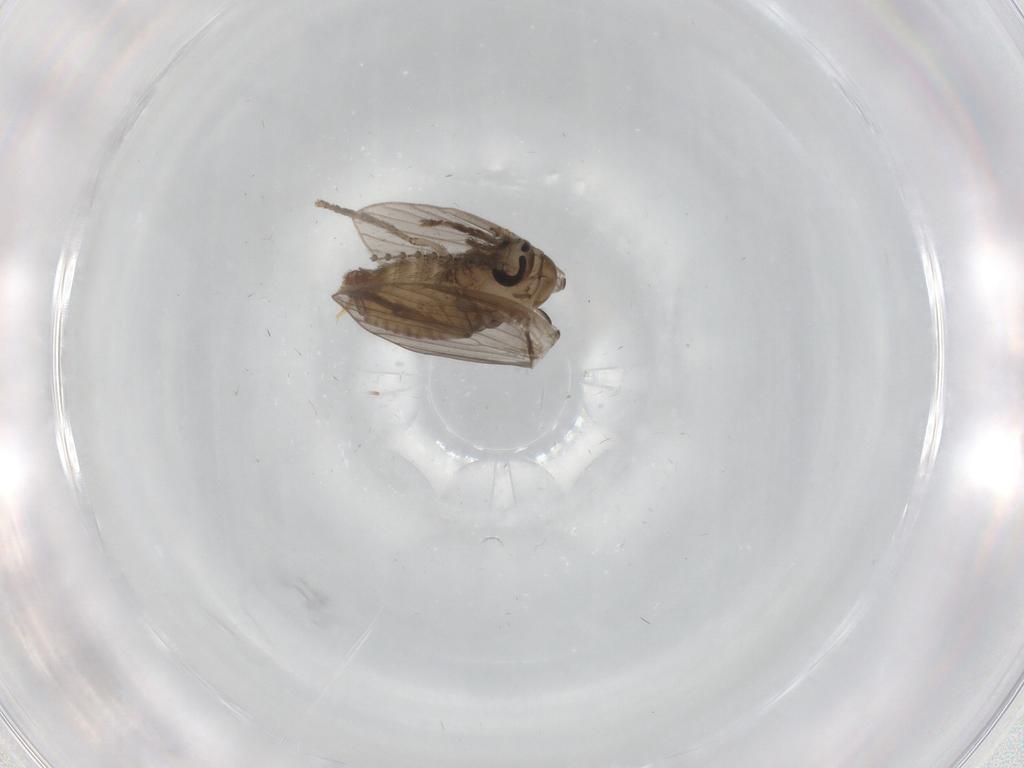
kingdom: Animalia
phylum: Arthropoda
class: Insecta
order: Diptera
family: Psychodidae
